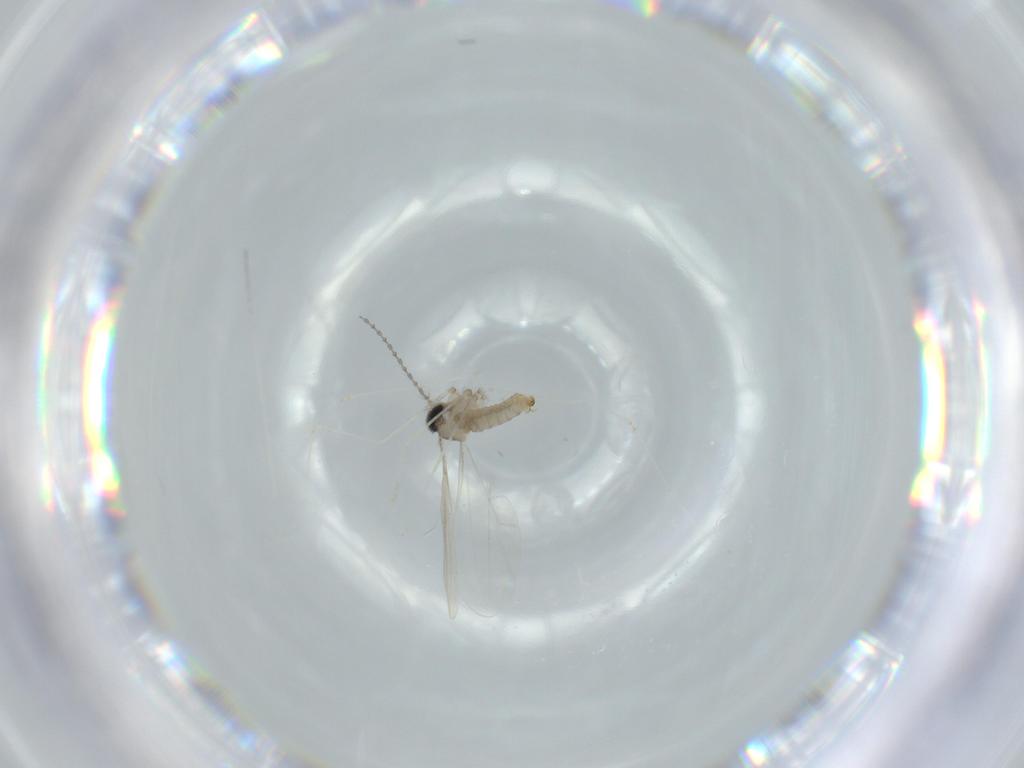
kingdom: Animalia
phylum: Arthropoda
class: Insecta
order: Diptera
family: Cecidomyiidae
